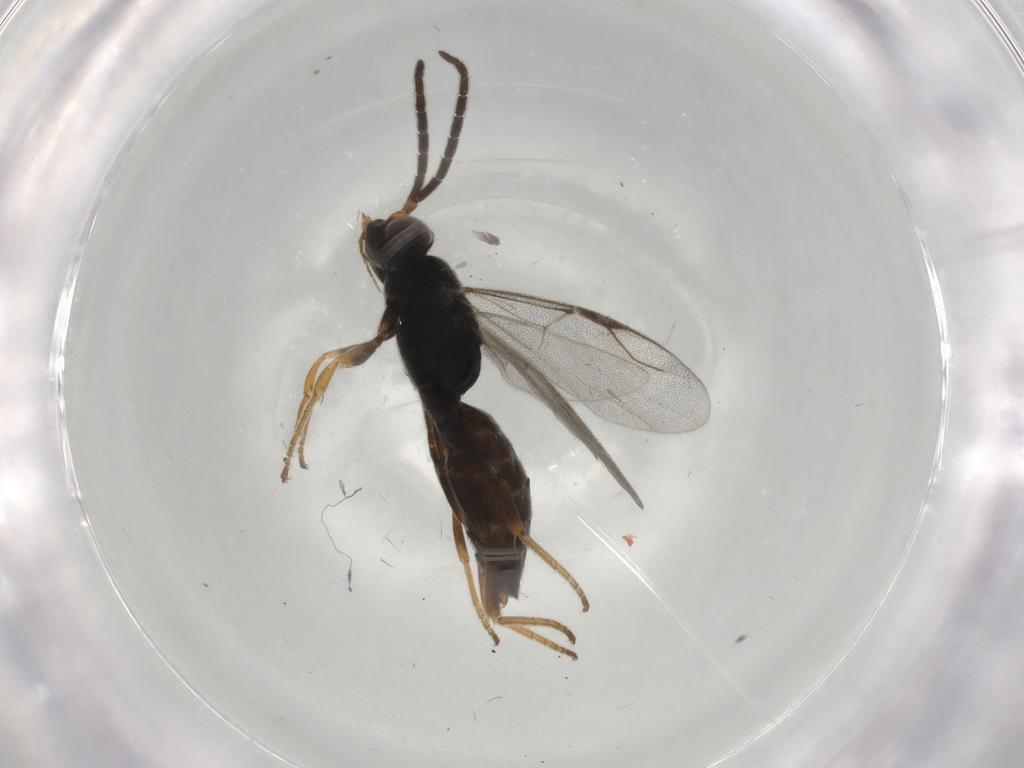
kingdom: Animalia
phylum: Arthropoda
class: Insecta
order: Hymenoptera
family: Dryinidae
